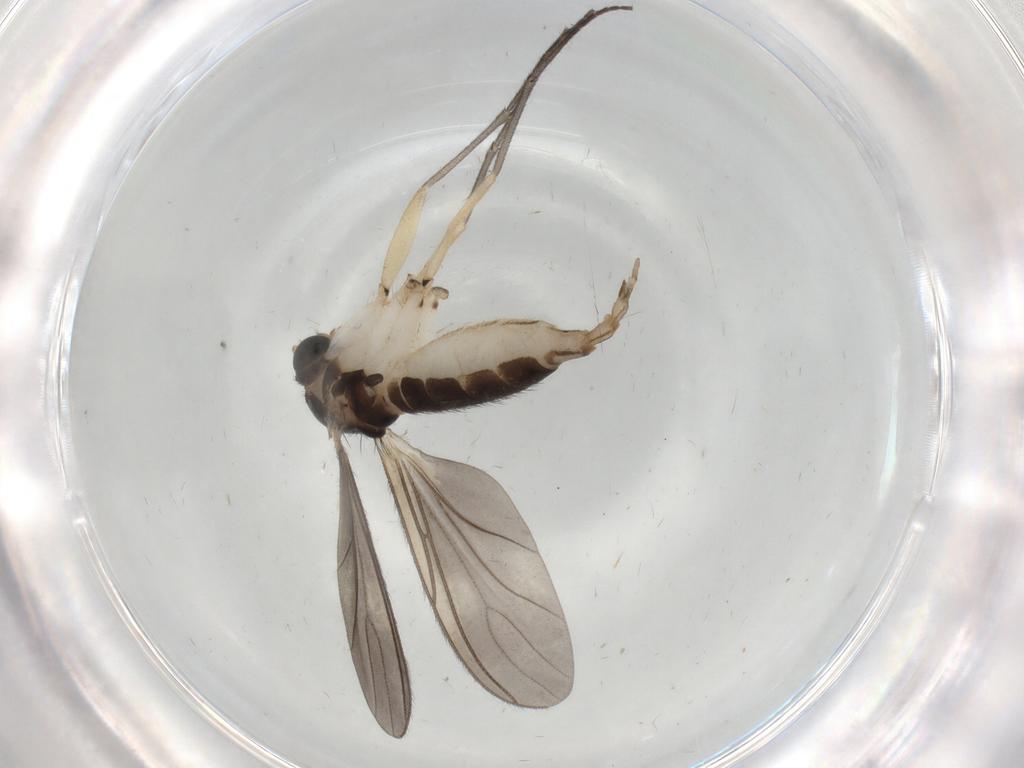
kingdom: Animalia
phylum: Arthropoda
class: Insecta
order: Diptera
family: Sciaridae
